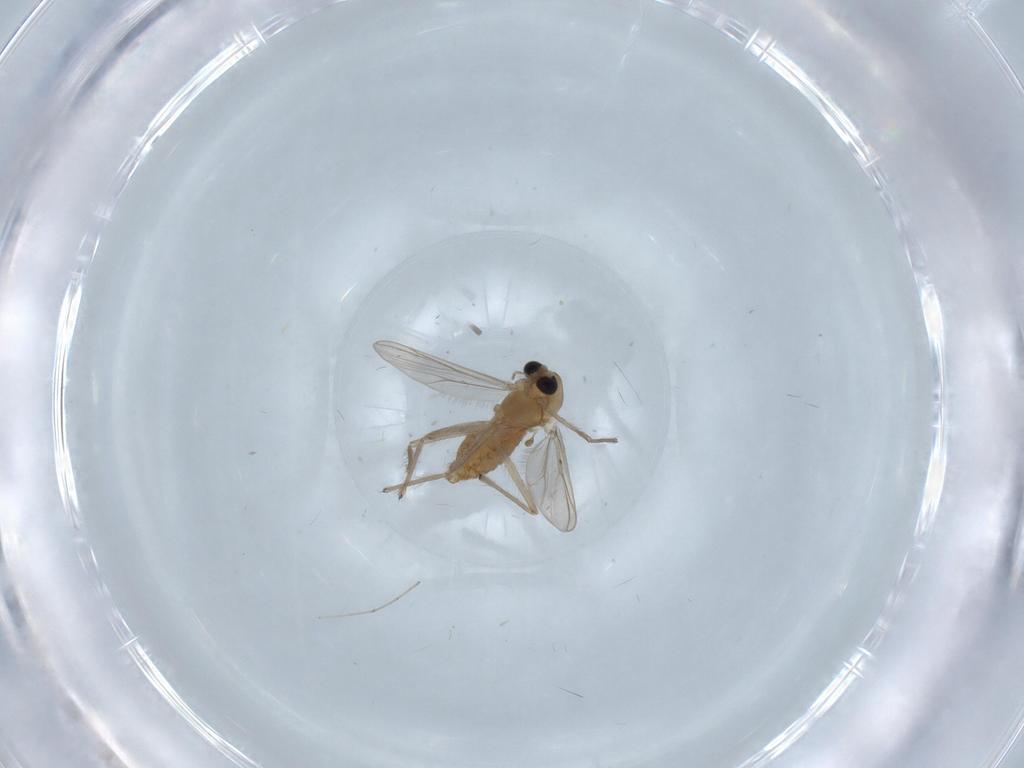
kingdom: Animalia
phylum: Arthropoda
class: Insecta
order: Diptera
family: Chironomidae
